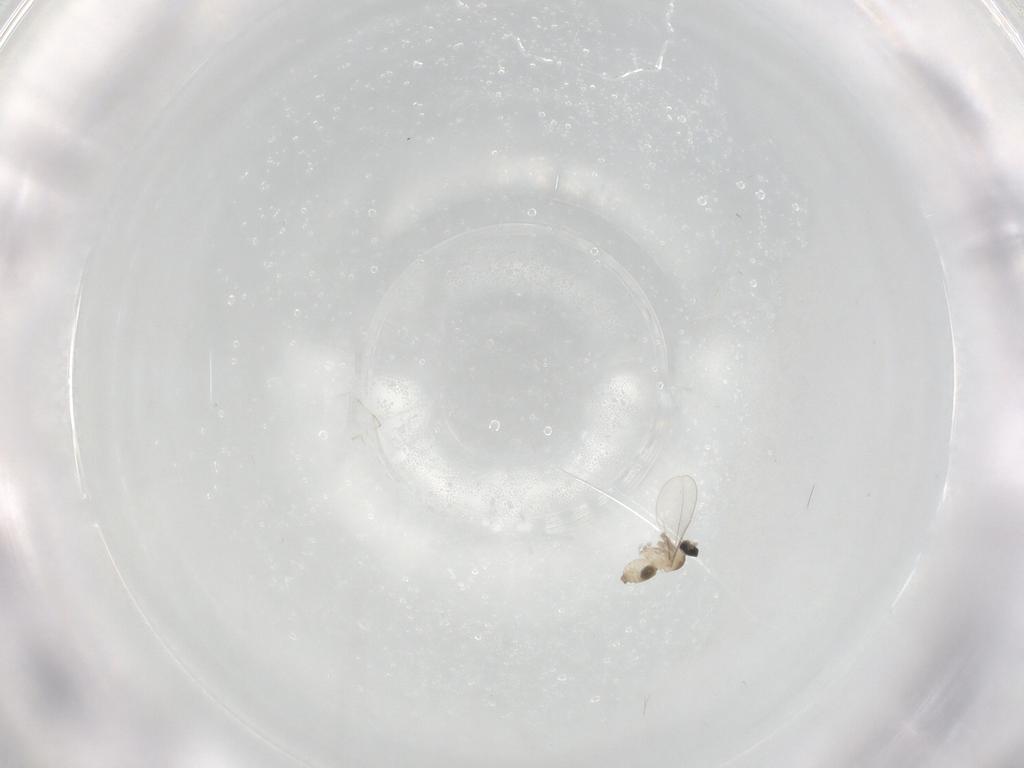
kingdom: Animalia
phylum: Arthropoda
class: Insecta
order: Diptera
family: Cecidomyiidae
